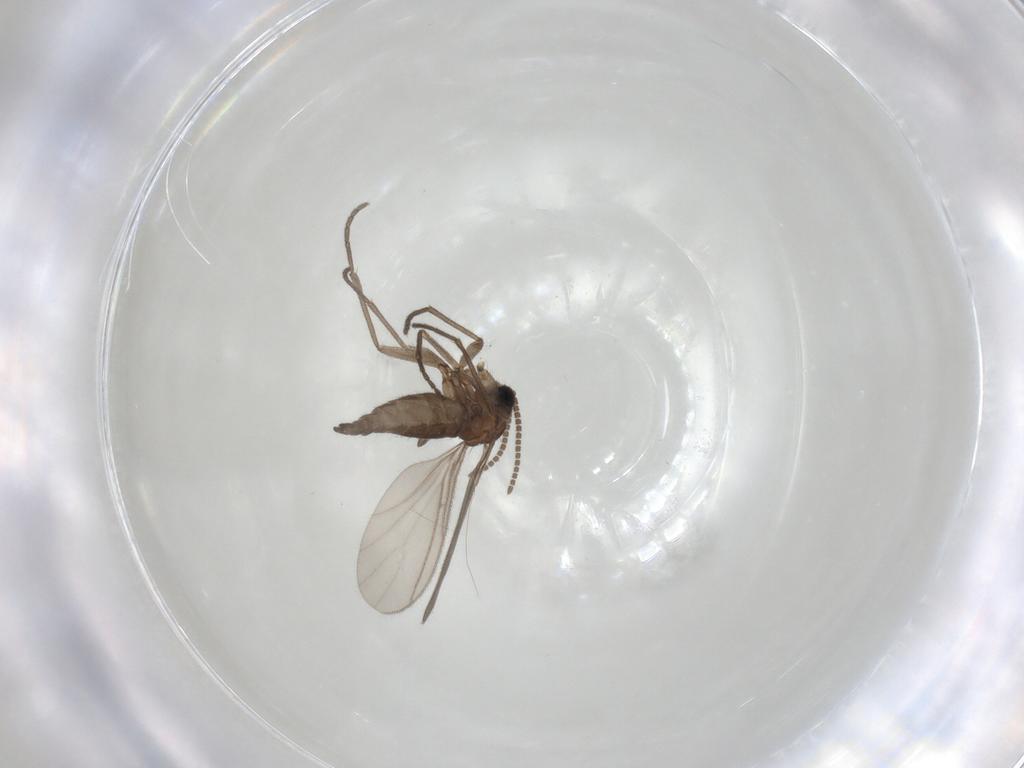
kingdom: Animalia
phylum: Arthropoda
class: Insecta
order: Diptera
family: Sciaridae
